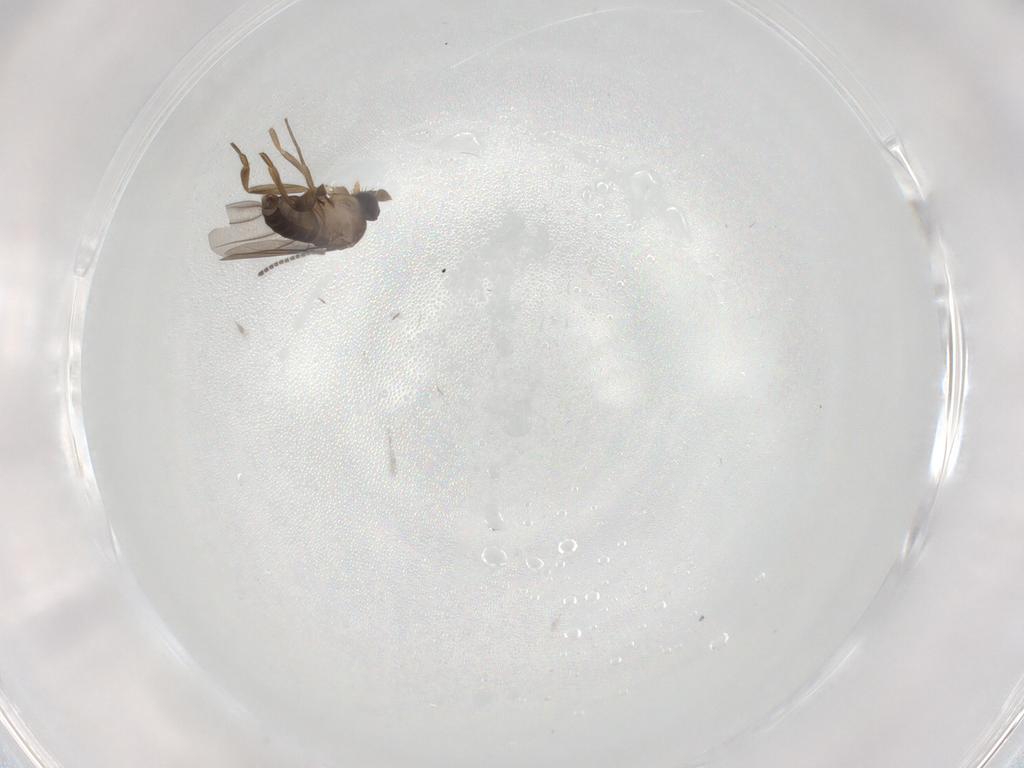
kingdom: Animalia
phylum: Arthropoda
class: Insecta
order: Diptera
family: Phoridae
